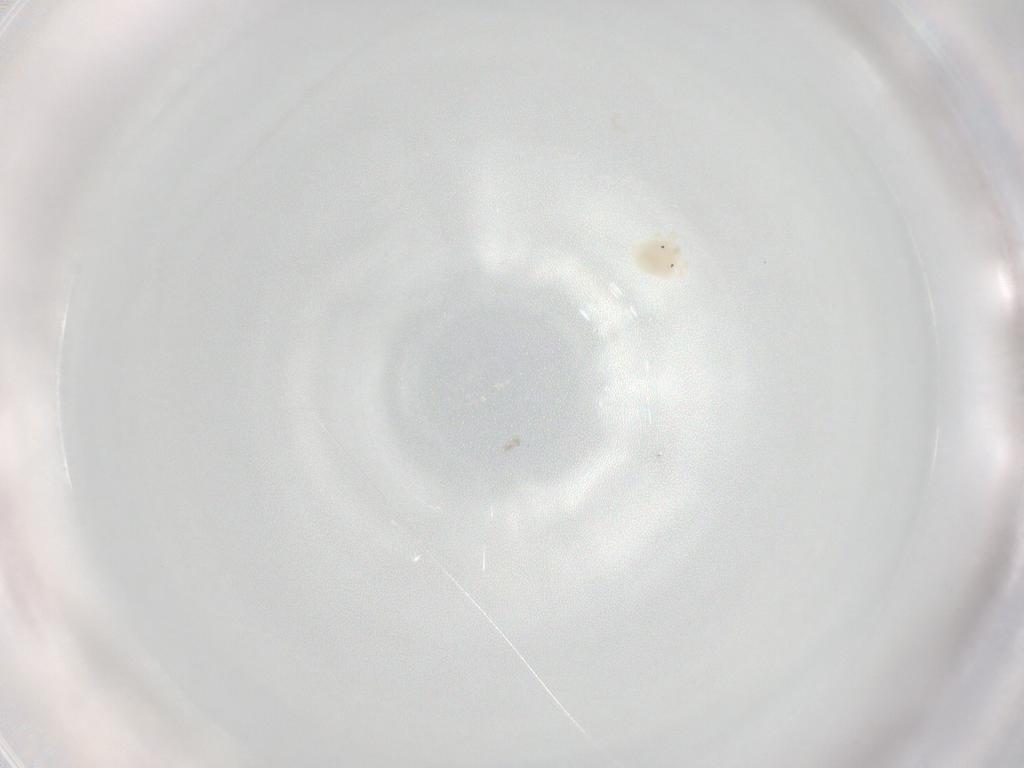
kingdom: Animalia
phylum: Arthropoda
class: Arachnida
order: Trombidiformes
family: Sperchontidae
